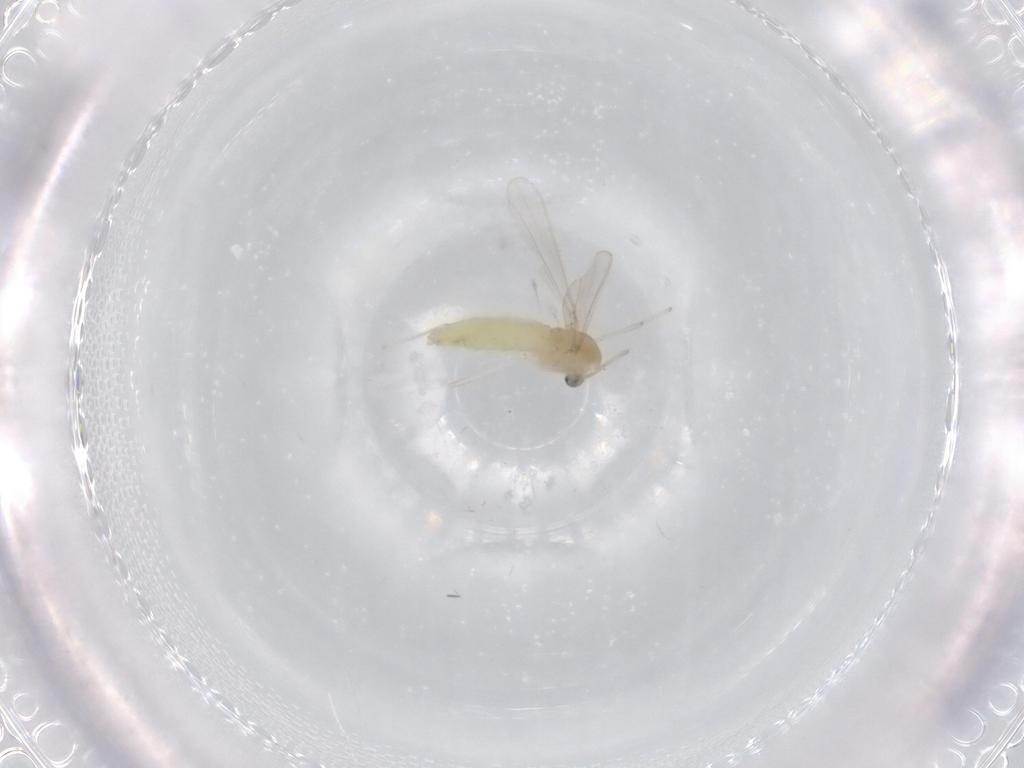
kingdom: Animalia
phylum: Arthropoda
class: Insecta
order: Diptera
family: Chironomidae
